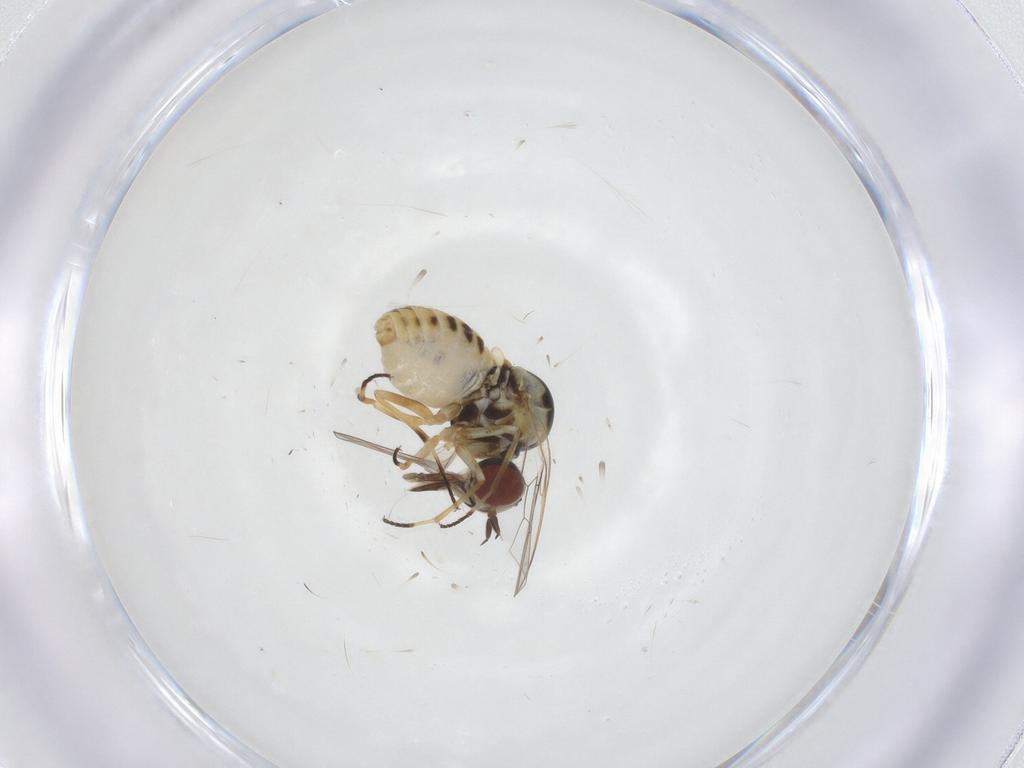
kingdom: Animalia
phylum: Arthropoda
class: Insecta
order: Diptera
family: Mythicomyiidae
